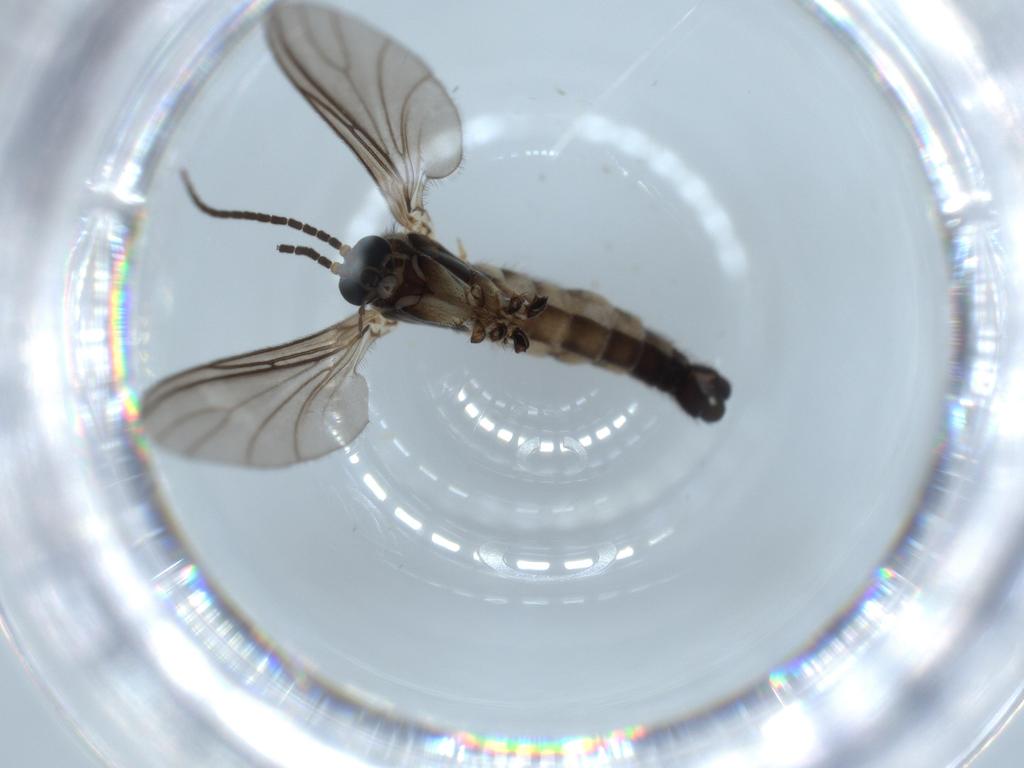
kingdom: Animalia
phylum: Arthropoda
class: Insecta
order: Diptera
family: Sciaridae
